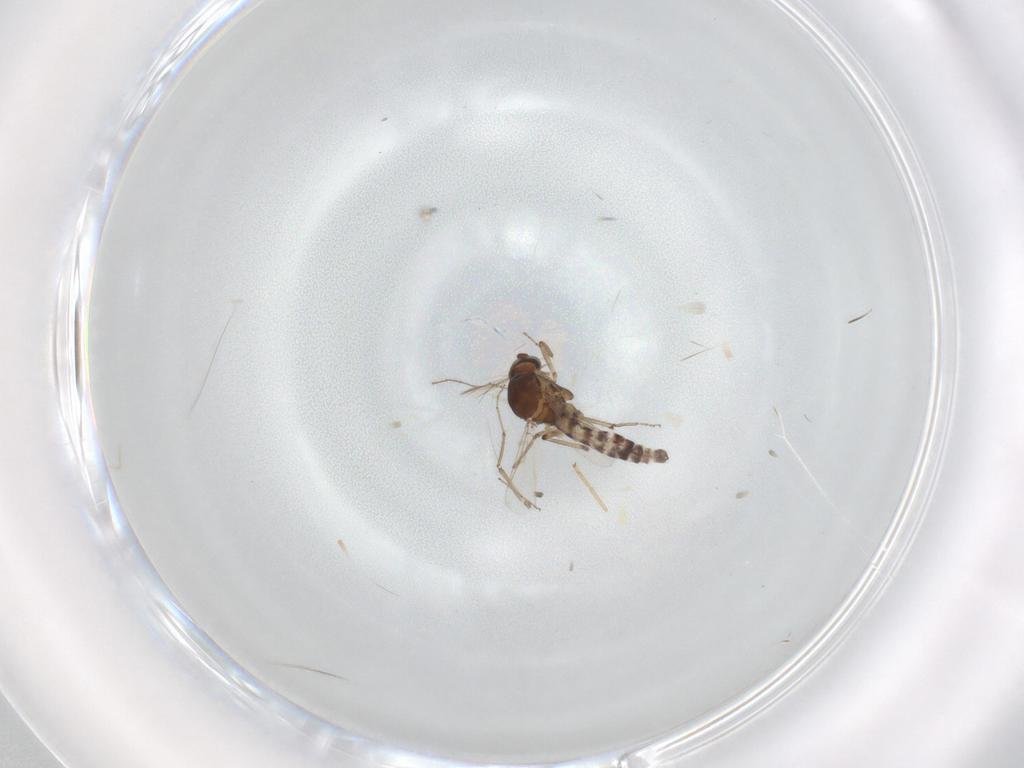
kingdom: Animalia
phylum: Arthropoda
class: Insecta
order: Diptera
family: Ceratopogonidae
